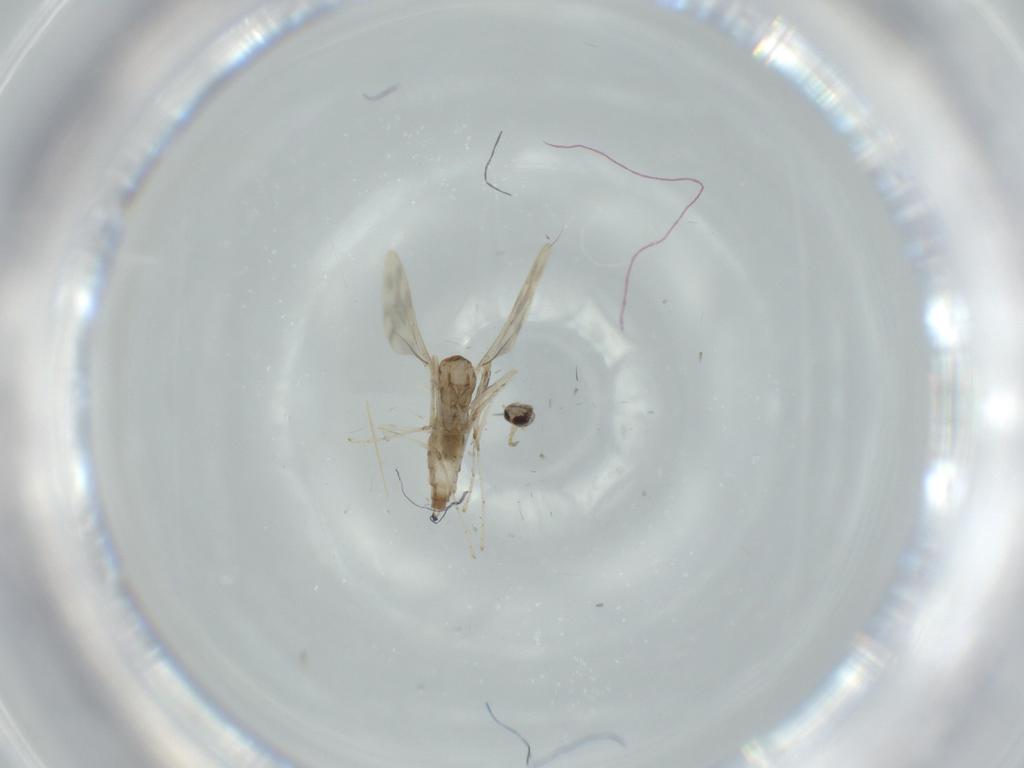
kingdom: Animalia
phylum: Arthropoda
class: Insecta
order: Diptera
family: Cecidomyiidae
